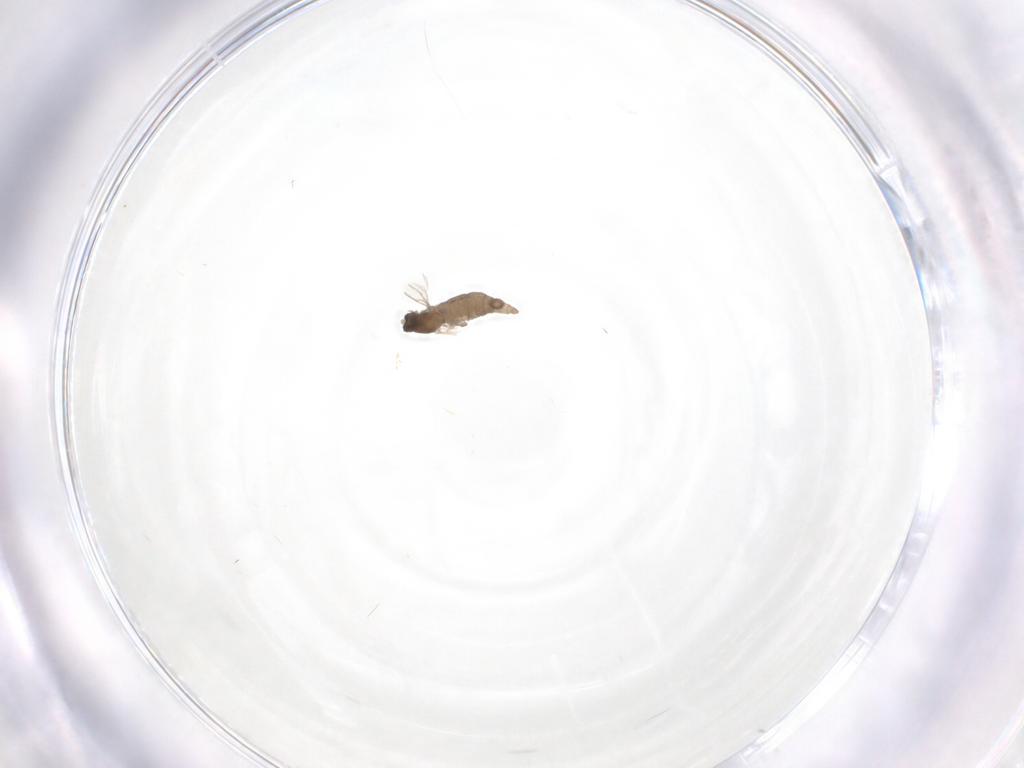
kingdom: Animalia
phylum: Arthropoda
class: Insecta
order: Diptera
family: Cecidomyiidae
